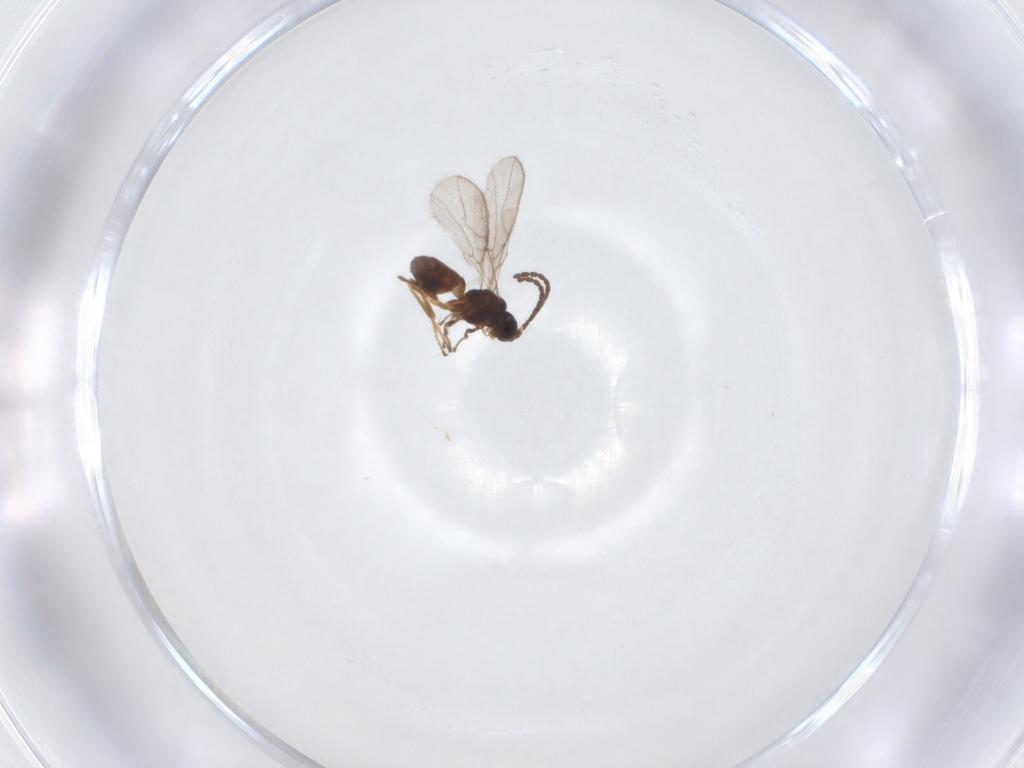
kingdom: Animalia
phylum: Arthropoda
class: Insecta
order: Hymenoptera
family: Braconidae
